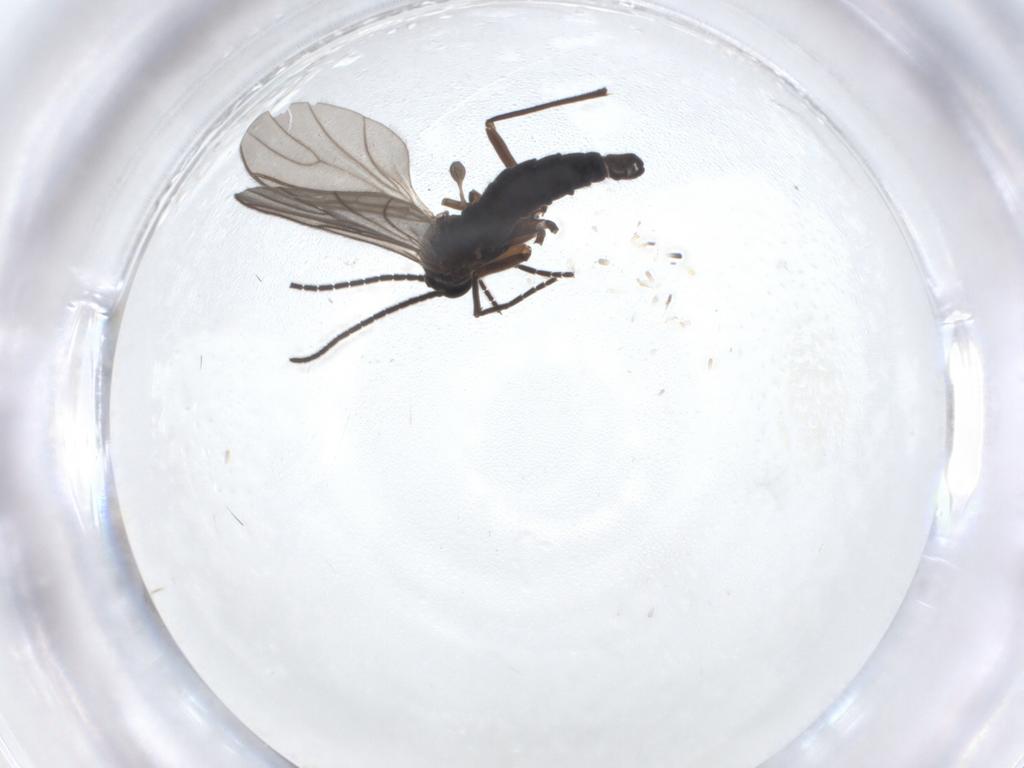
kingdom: Animalia
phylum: Arthropoda
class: Insecta
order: Diptera
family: Sciaridae
